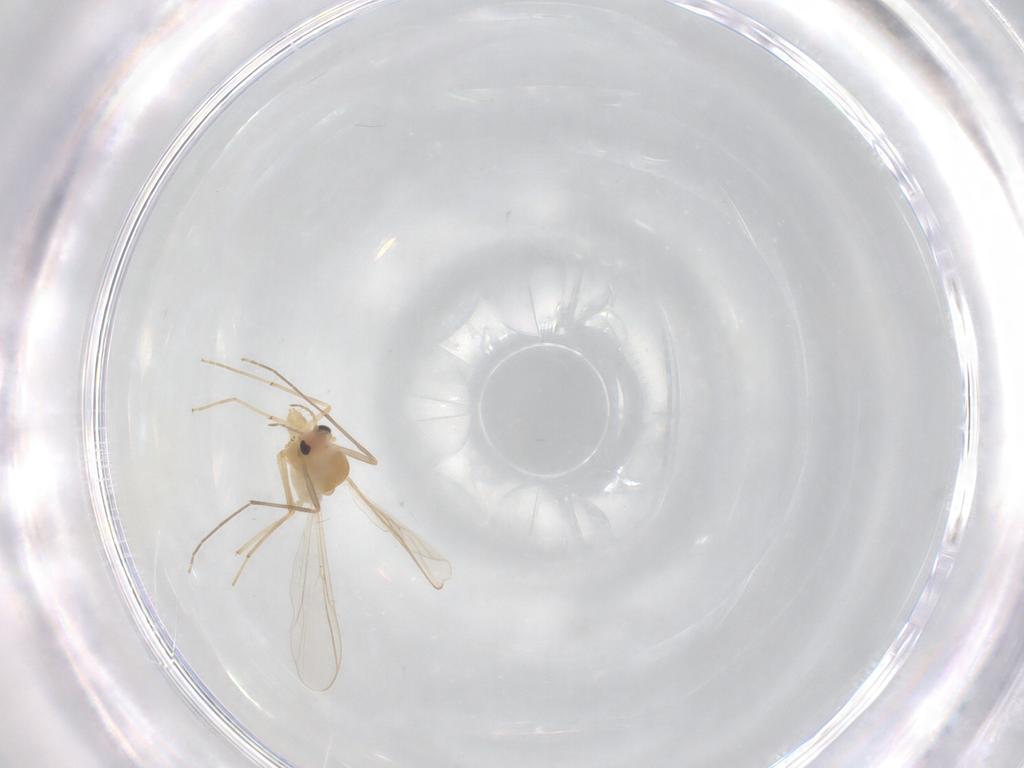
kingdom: Animalia
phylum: Arthropoda
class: Insecta
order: Diptera
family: Chironomidae
